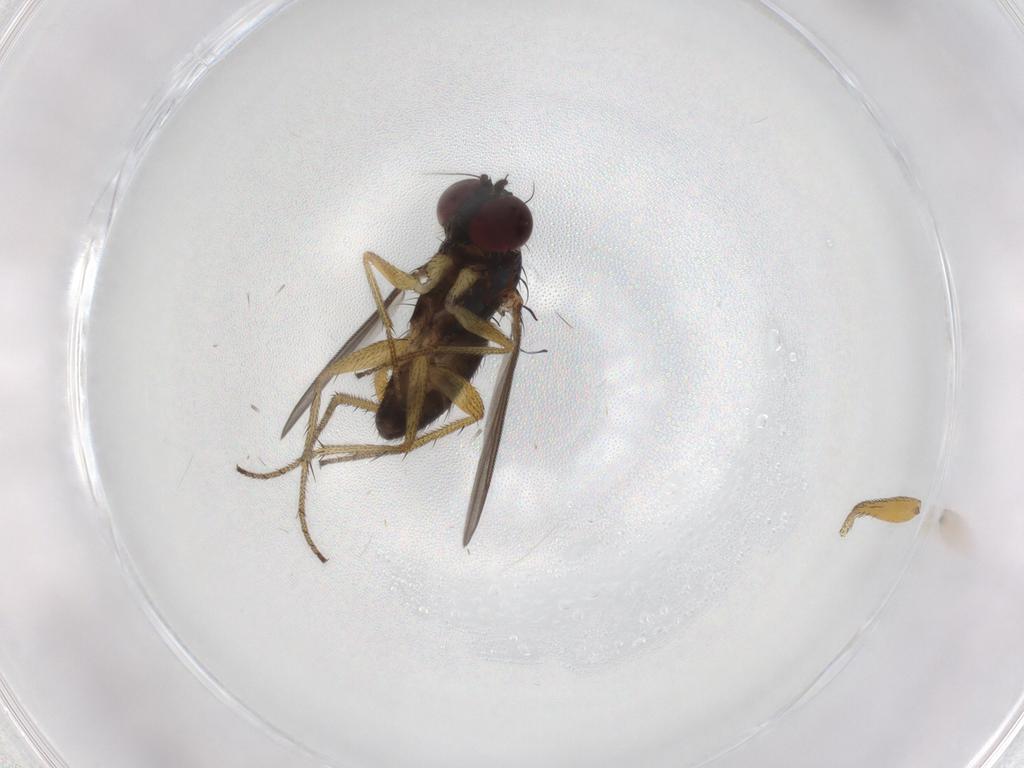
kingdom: Animalia
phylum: Arthropoda
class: Insecta
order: Diptera
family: Dolichopodidae
